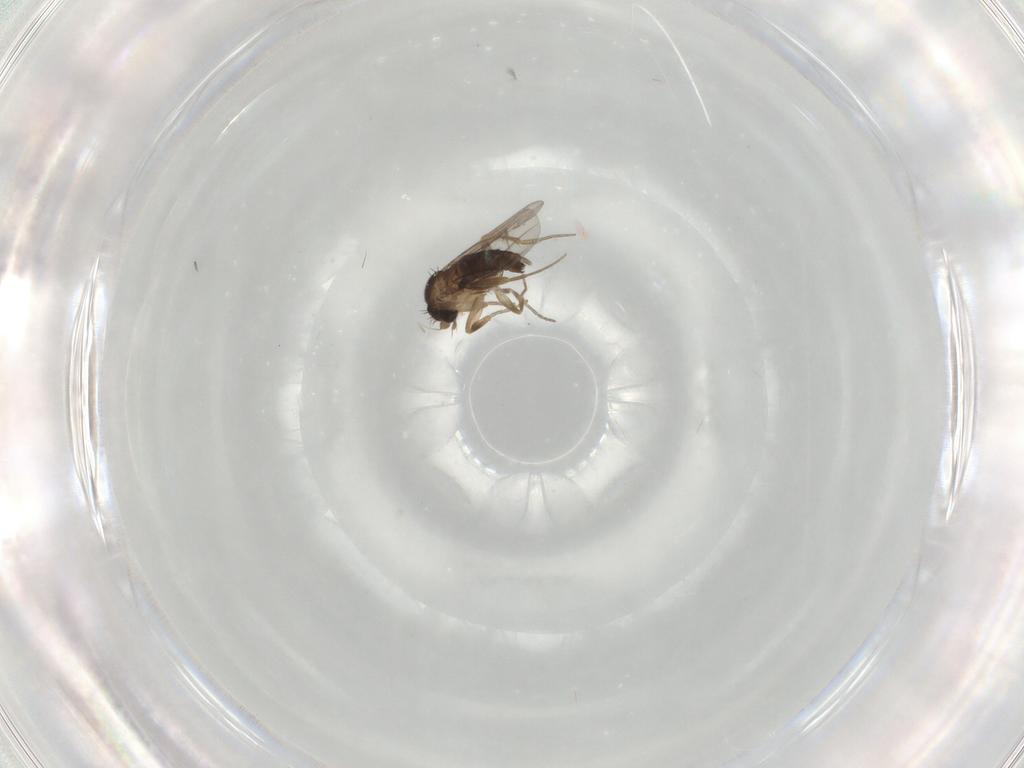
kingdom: Animalia
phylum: Arthropoda
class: Insecta
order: Diptera
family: Phoridae
